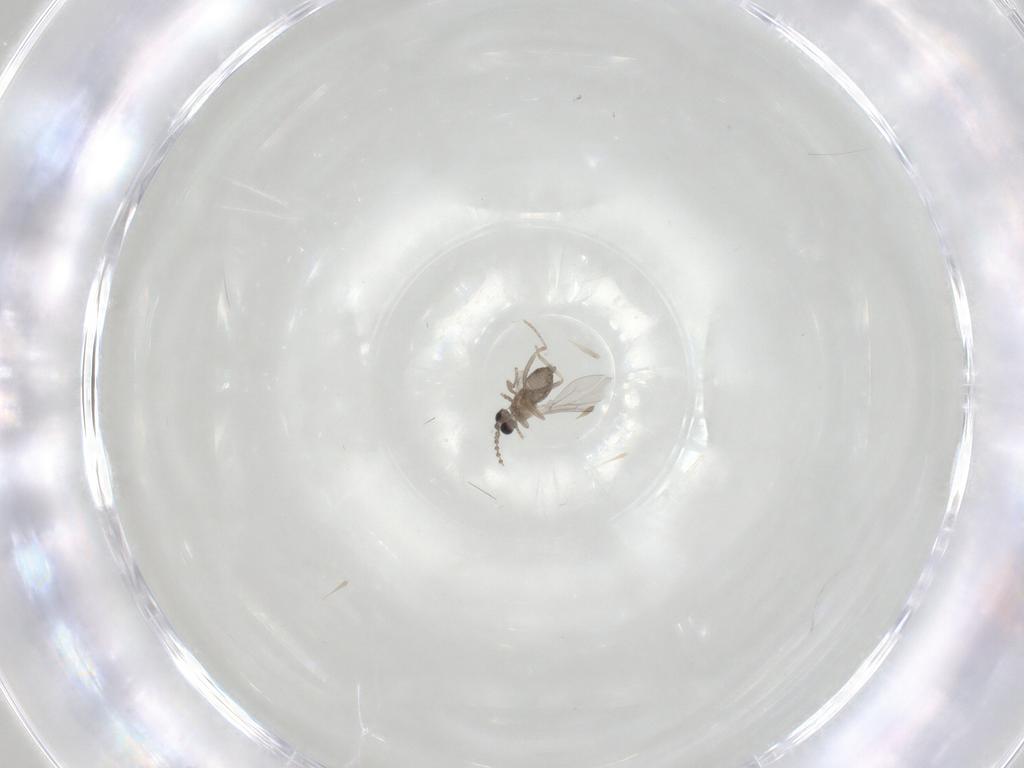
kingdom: Animalia
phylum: Arthropoda
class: Insecta
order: Diptera
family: Cecidomyiidae
